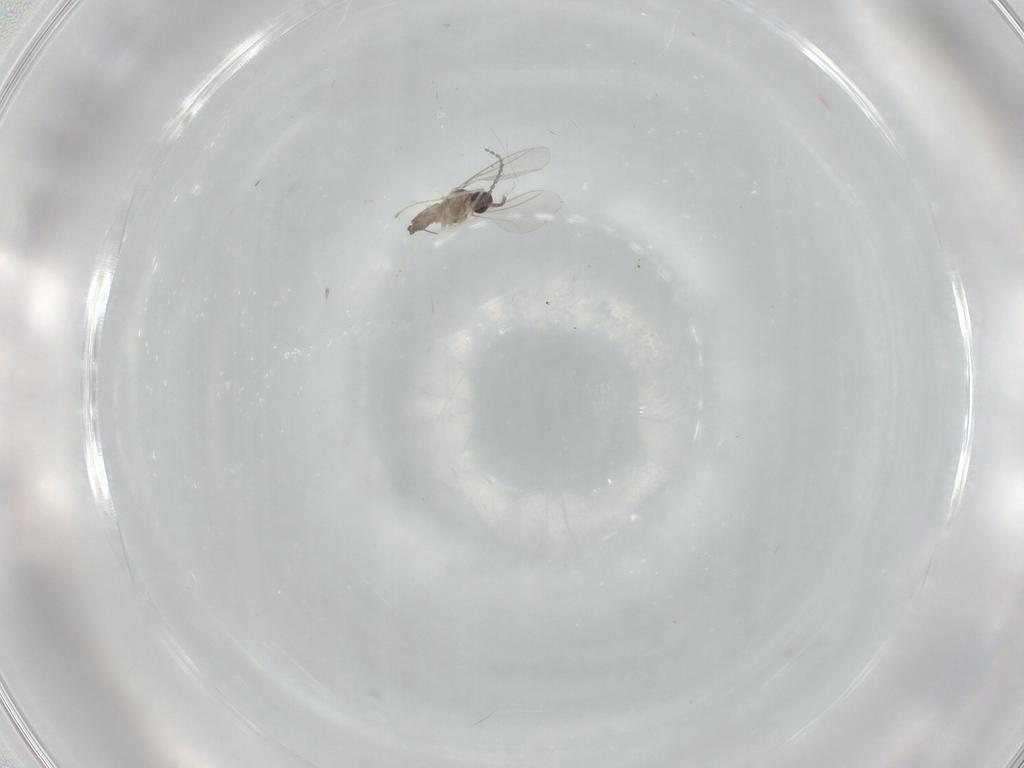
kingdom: Animalia
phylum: Arthropoda
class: Insecta
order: Diptera
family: Cecidomyiidae
